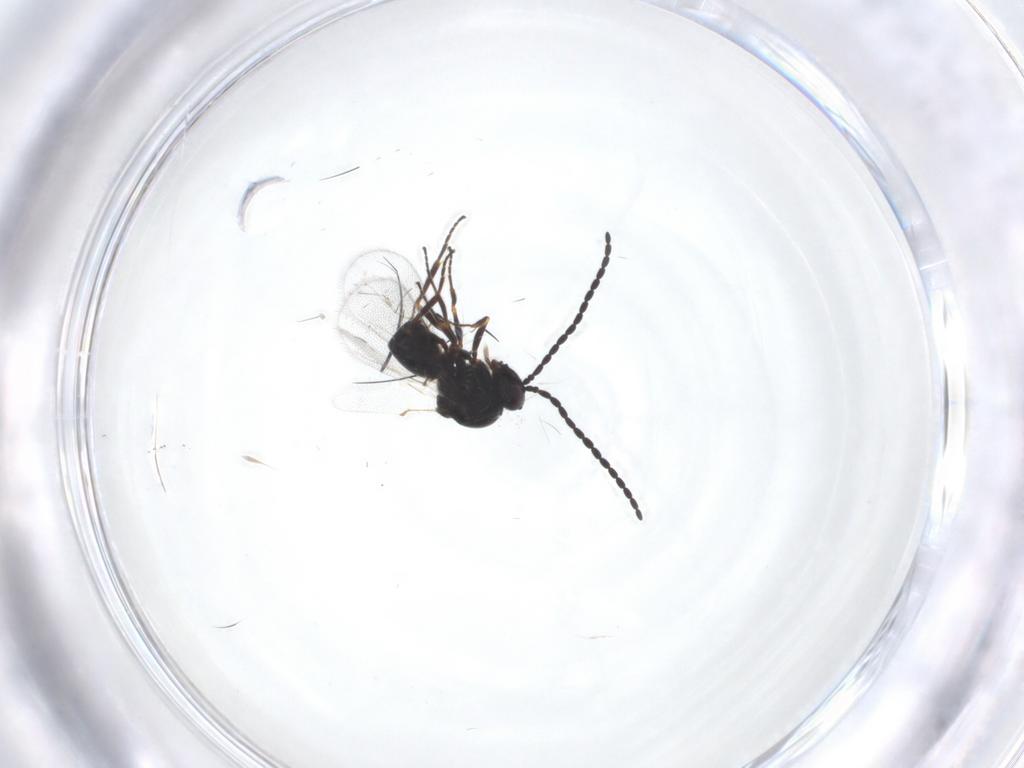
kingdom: Animalia
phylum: Arthropoda
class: Insecta
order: Hymenoptera
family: Figitidae
